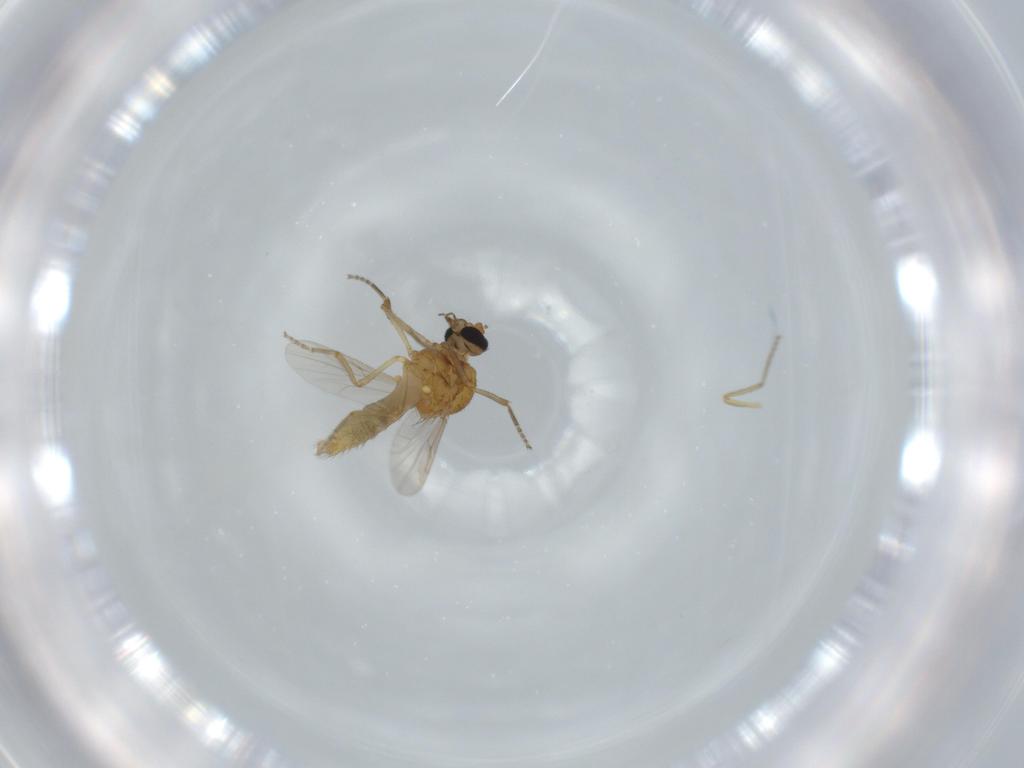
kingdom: Animalia
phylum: Arthropoda
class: Insecta
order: Diptera
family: Ceratopogonidae
